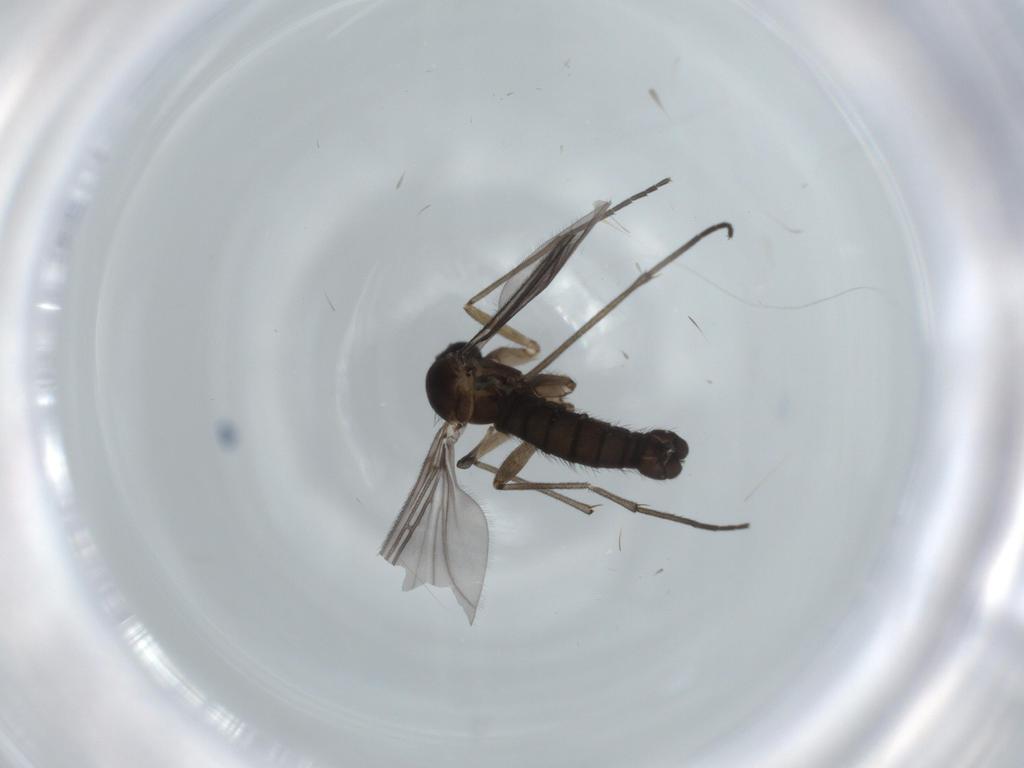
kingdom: Animalia
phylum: Arthropoda
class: Insecta
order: Diptera
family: Sciaridae
